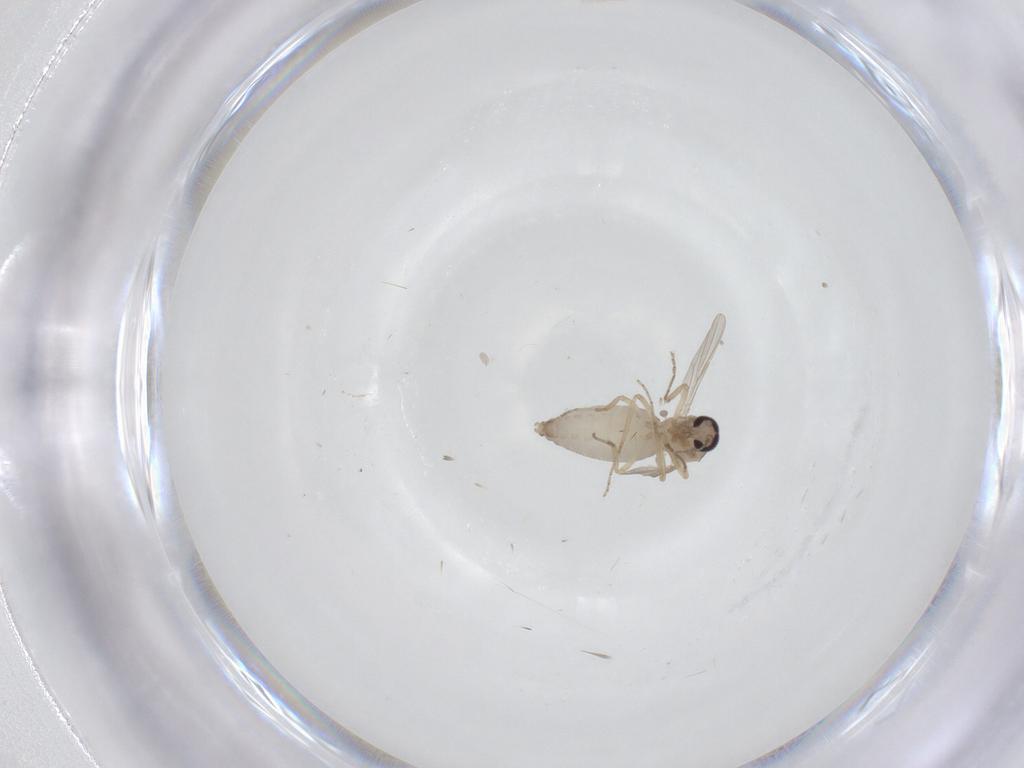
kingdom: Animalia
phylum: Arthropoda
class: Insecta
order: Diptera
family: Ceratopogonidae
